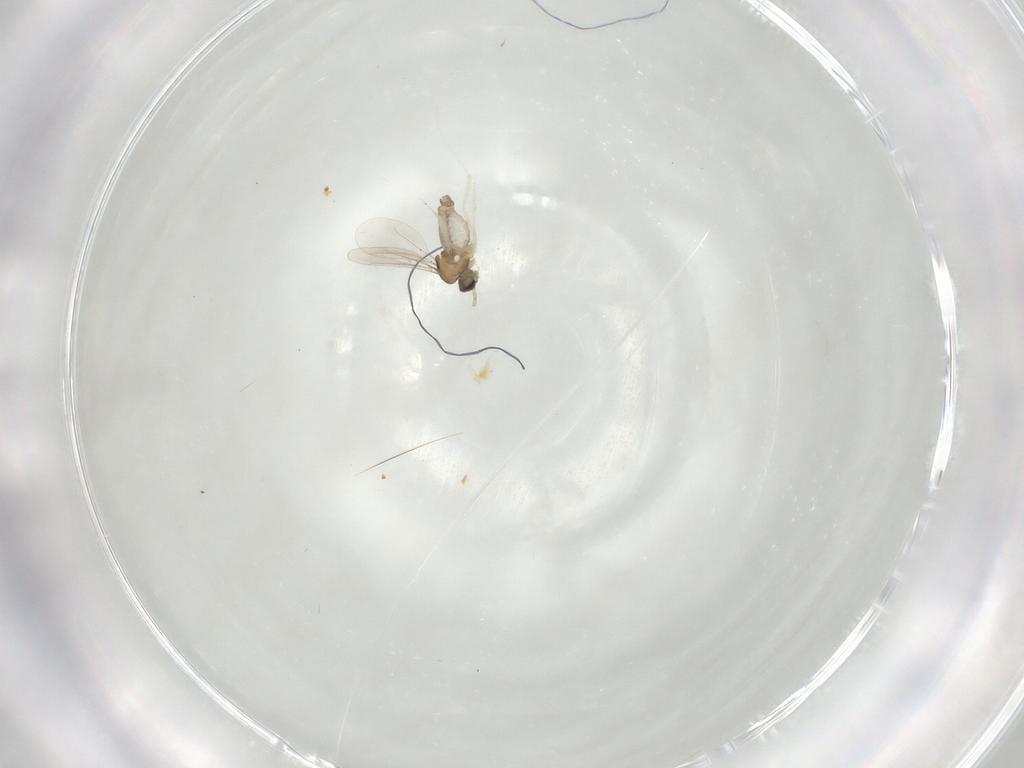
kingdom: Animalia
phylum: Arthropoda
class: Insecta
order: Diptera
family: Cecidomyiidae
